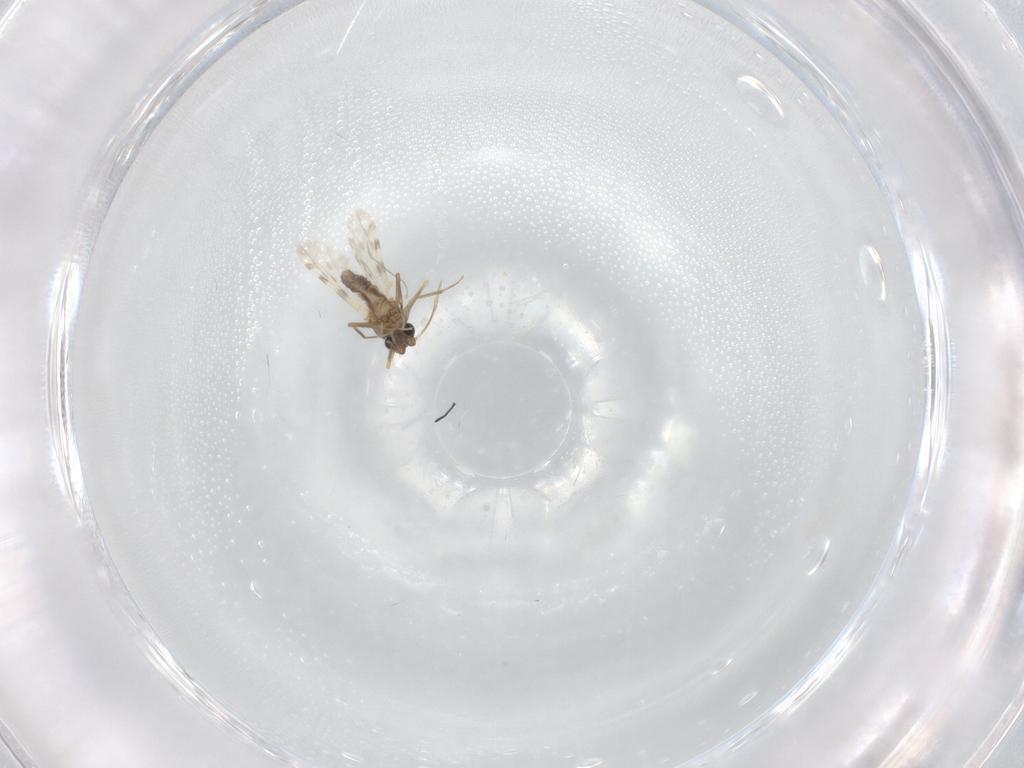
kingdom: Animalia
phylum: Arthropoda
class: Insecta
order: Diptera
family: Ceratopogonidae
